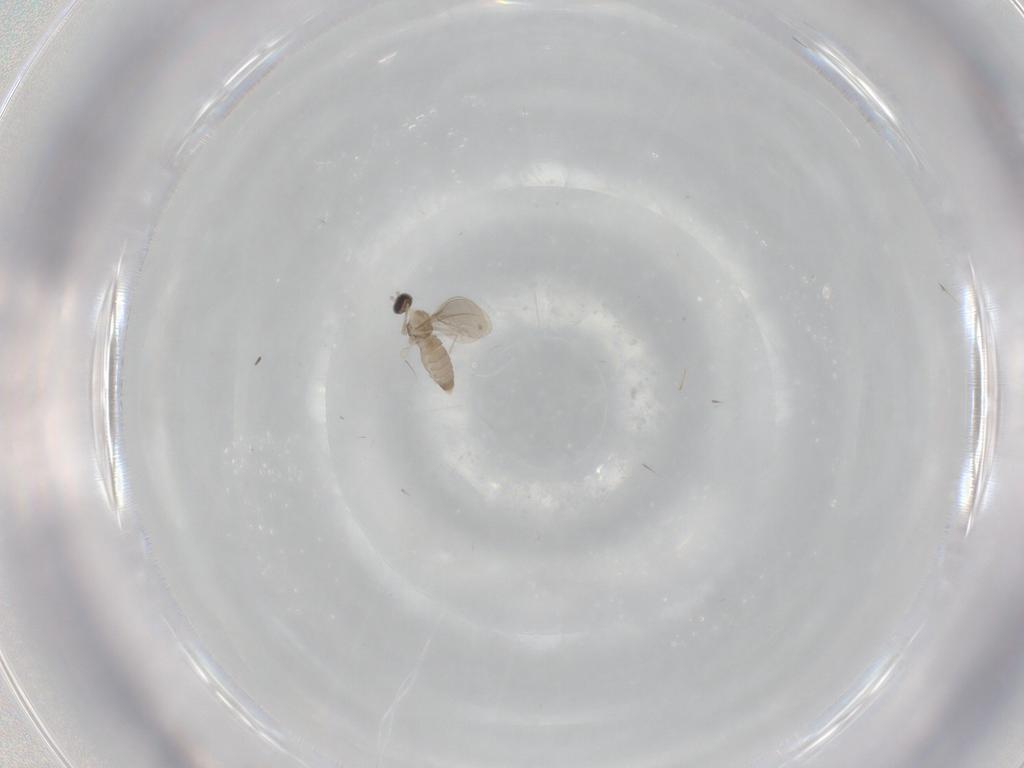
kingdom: Animalia
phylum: Arthropoda
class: Insecta
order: Diptera
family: Cecidomyiidae
